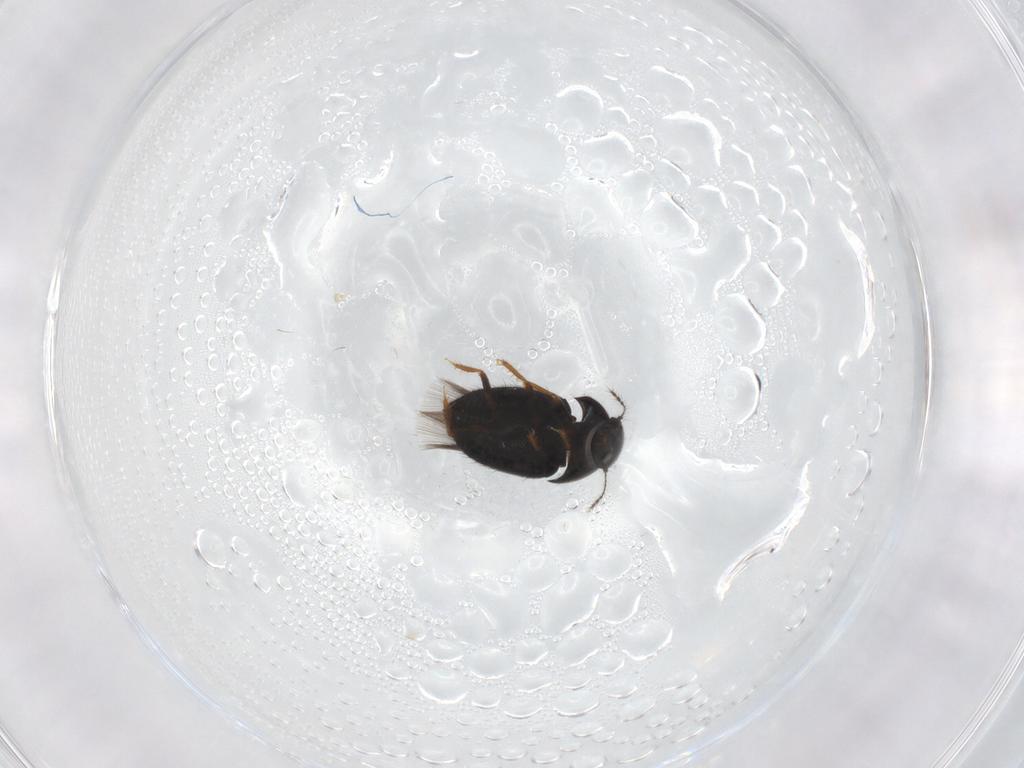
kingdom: Animalia
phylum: Arthropoda
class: Insecta
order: Coleoptera
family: Chrysomelidae
